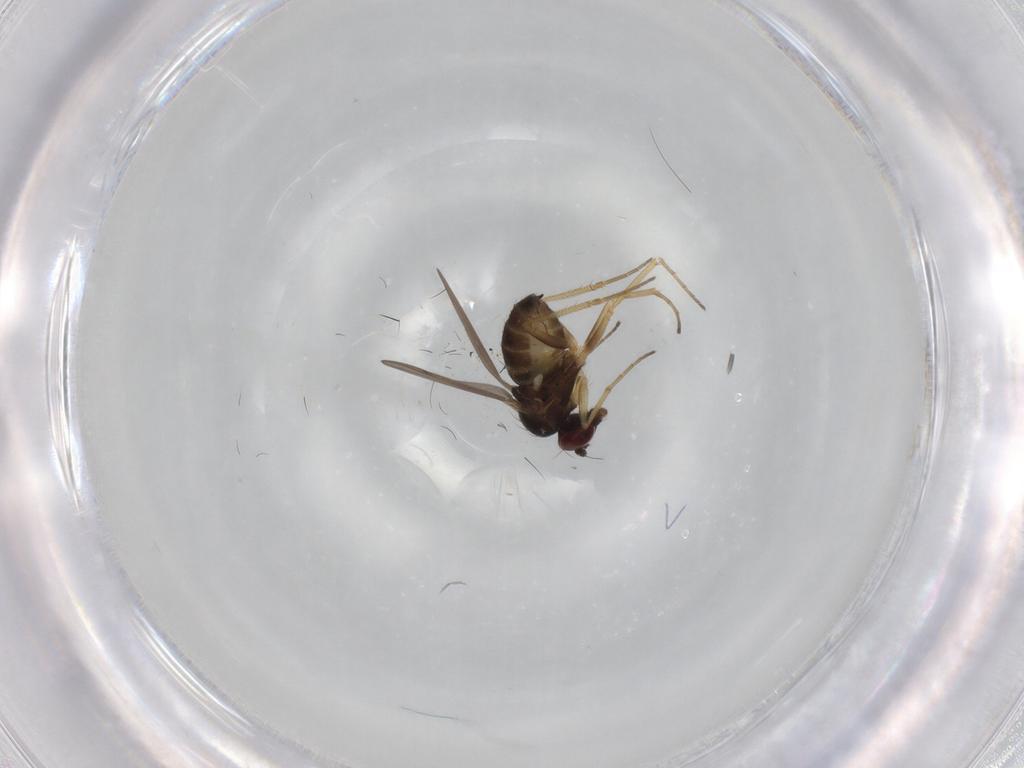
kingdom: Animalia
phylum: Arthropoda
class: Insecta
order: Diptera
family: Dolichopodidae
